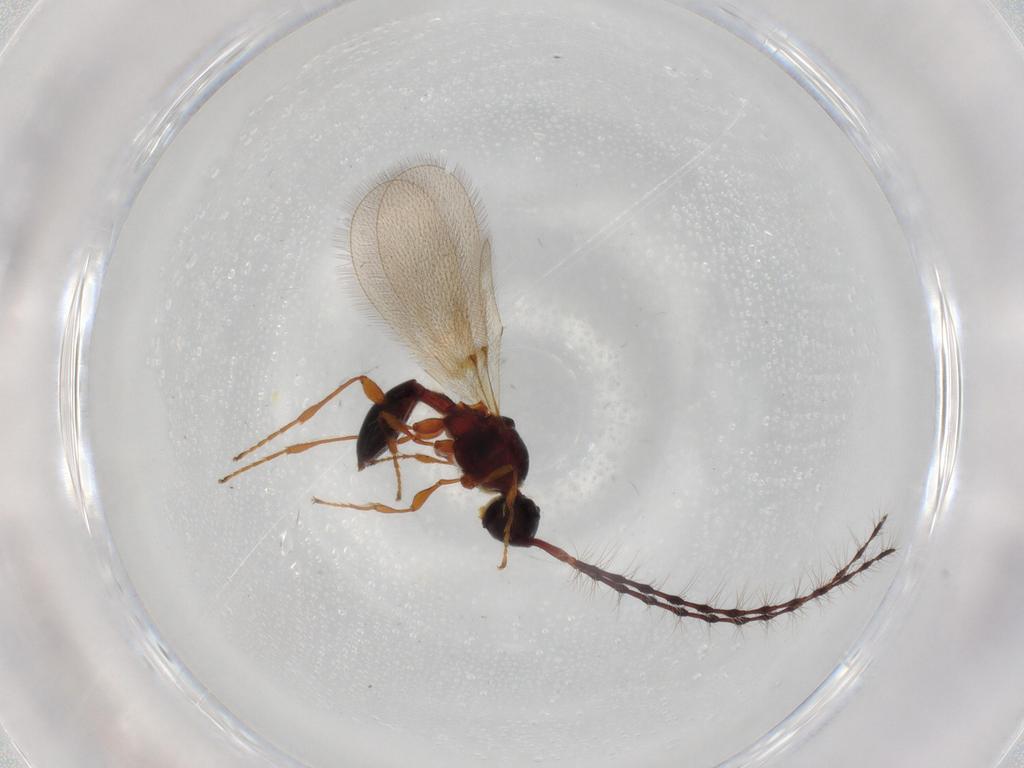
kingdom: Animalia
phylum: Arthropoda
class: Insecta
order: Hymenoptera
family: Diapriidae
